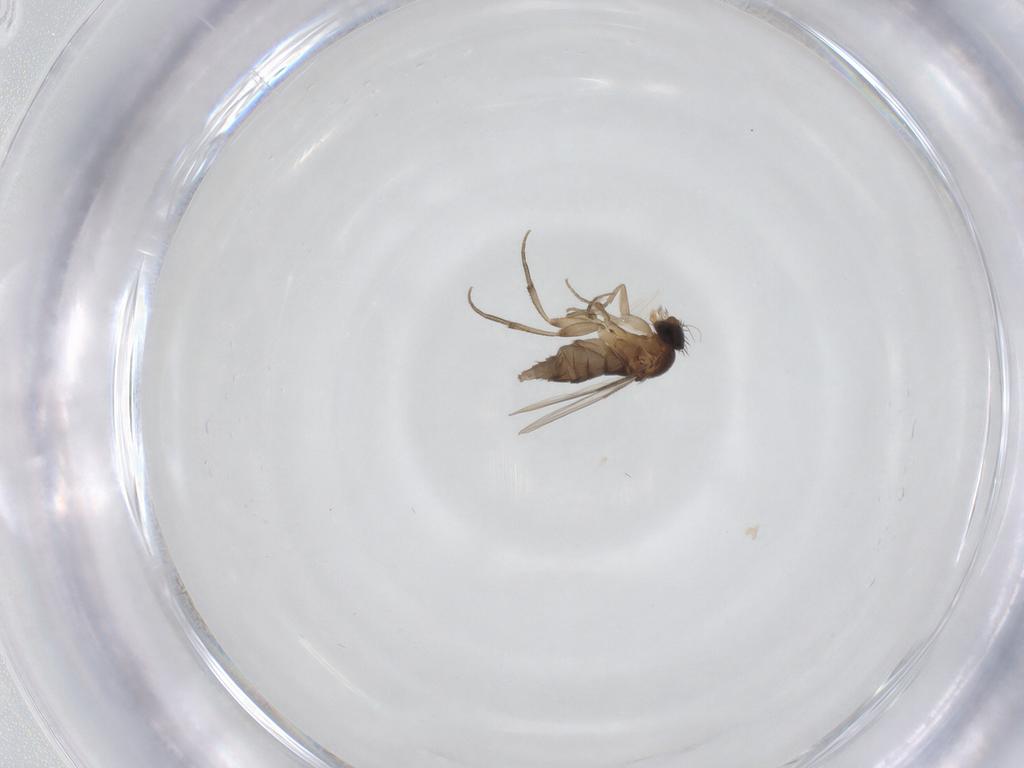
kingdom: Animalia
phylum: Arthropoda
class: Insecta
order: Diptera
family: Phoridae
